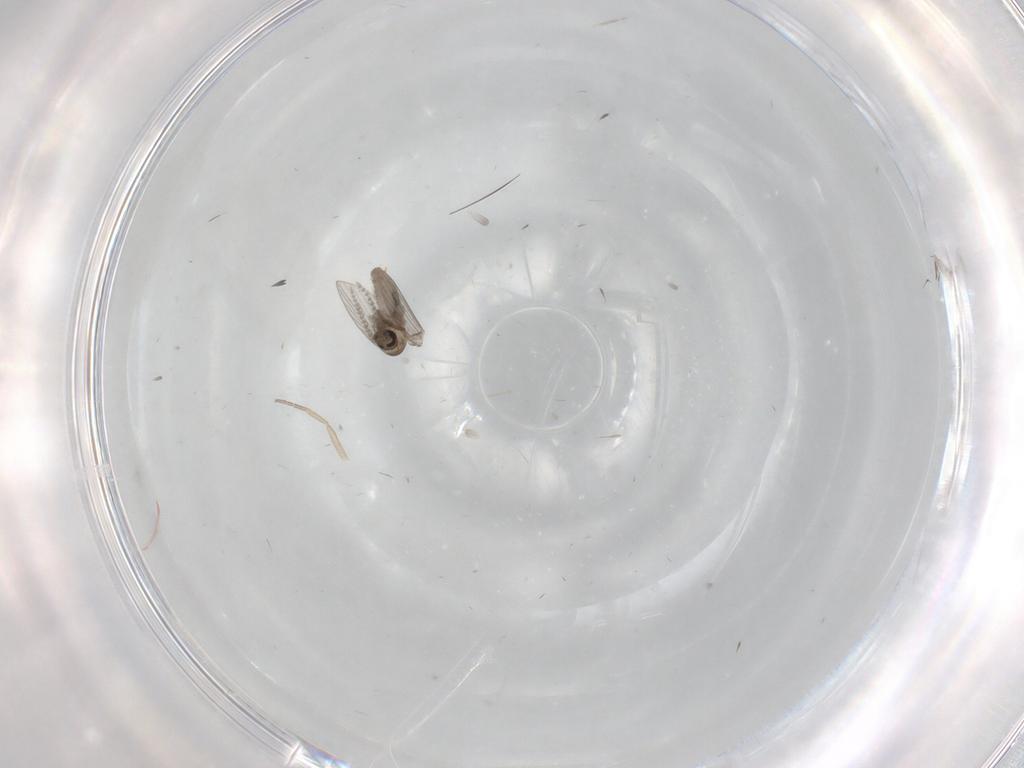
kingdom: Animalia
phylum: Arthropoda
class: Insecta
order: Diptera
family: Psychodidae
